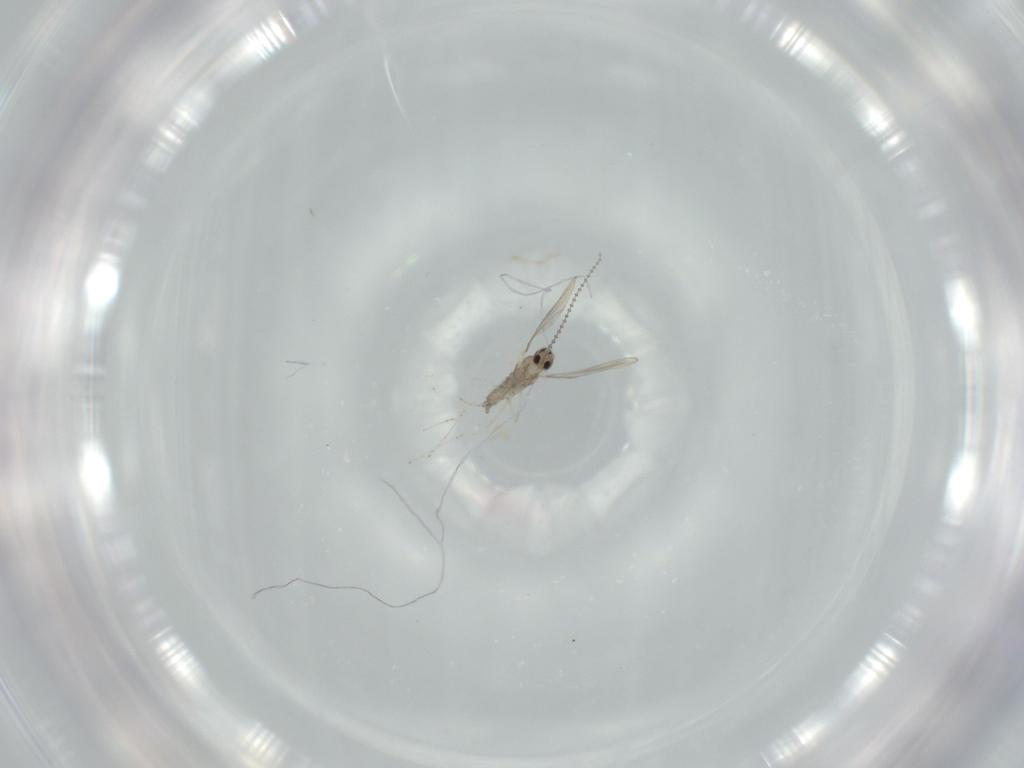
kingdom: Animalia
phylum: Arthropoda
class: Insecta
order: Diptera
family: Cecidomyiidae
